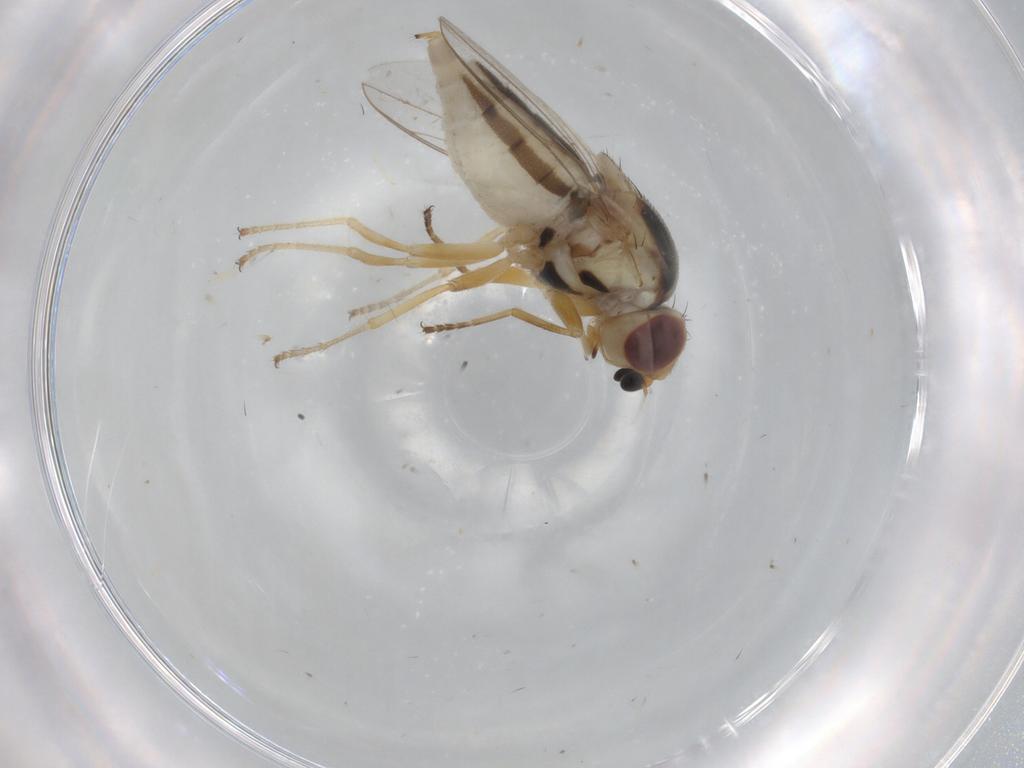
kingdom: Animalia
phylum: Arthropoda
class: Insecta
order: Diptera
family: Chloropidae
